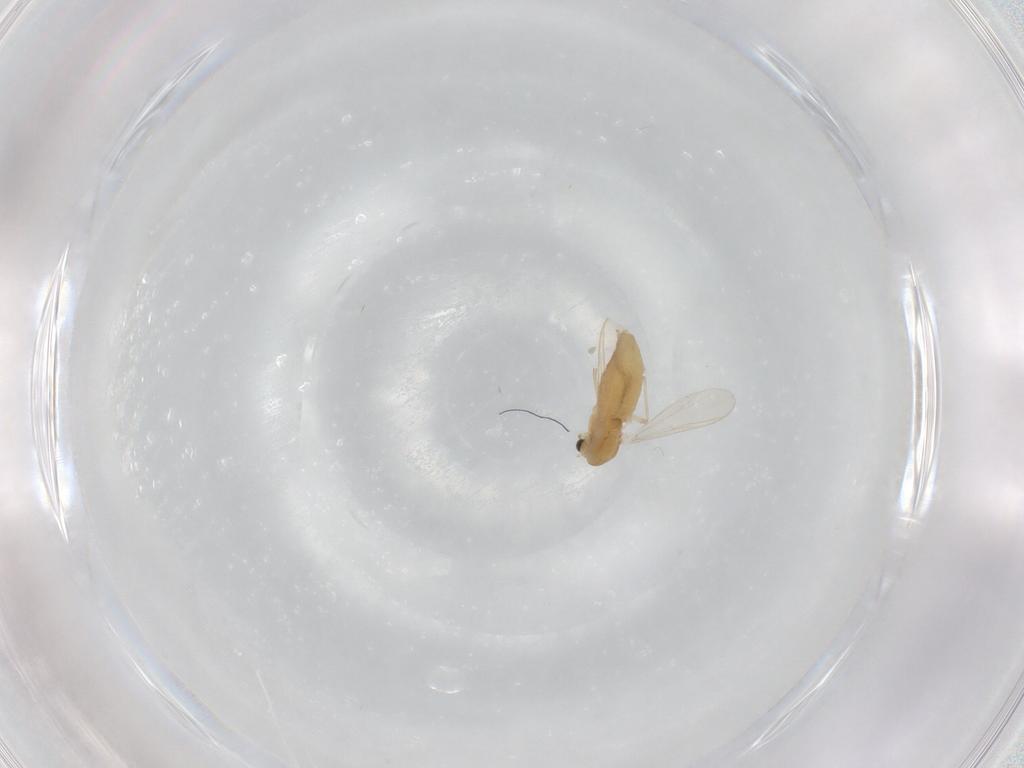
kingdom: Animalia
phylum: Arthropoda
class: Insecta
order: Diptera
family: Chironomidae
